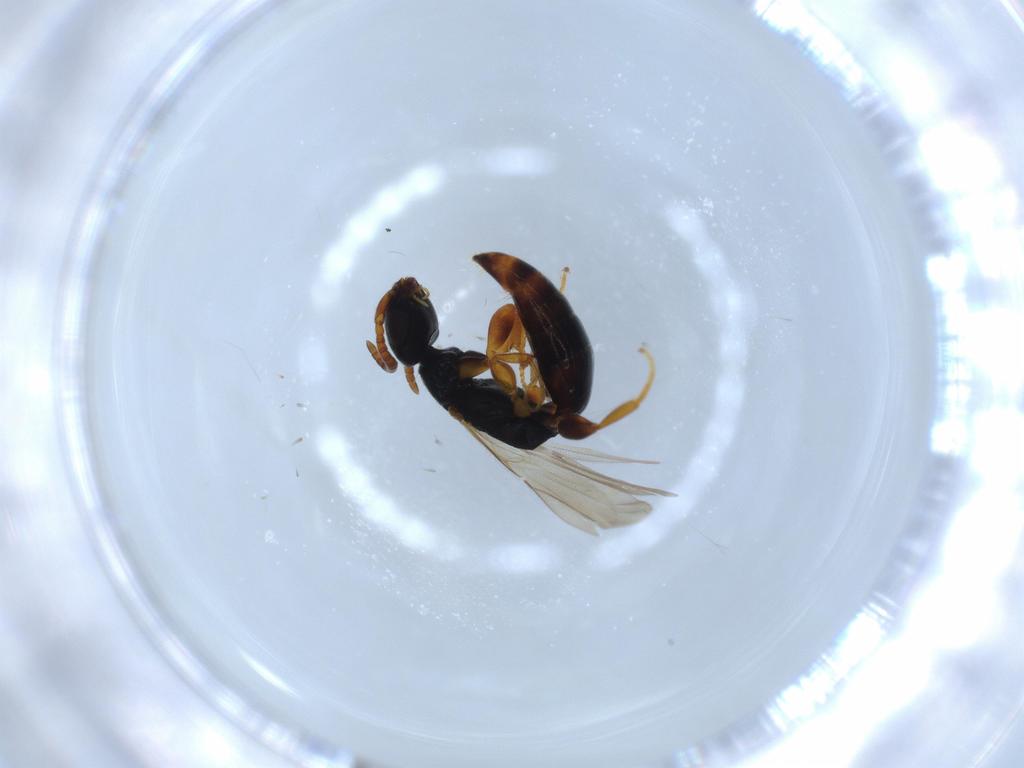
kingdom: Animalia
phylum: Arthropoda
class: Insecta
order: Hymenoptera
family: Bethylidae
